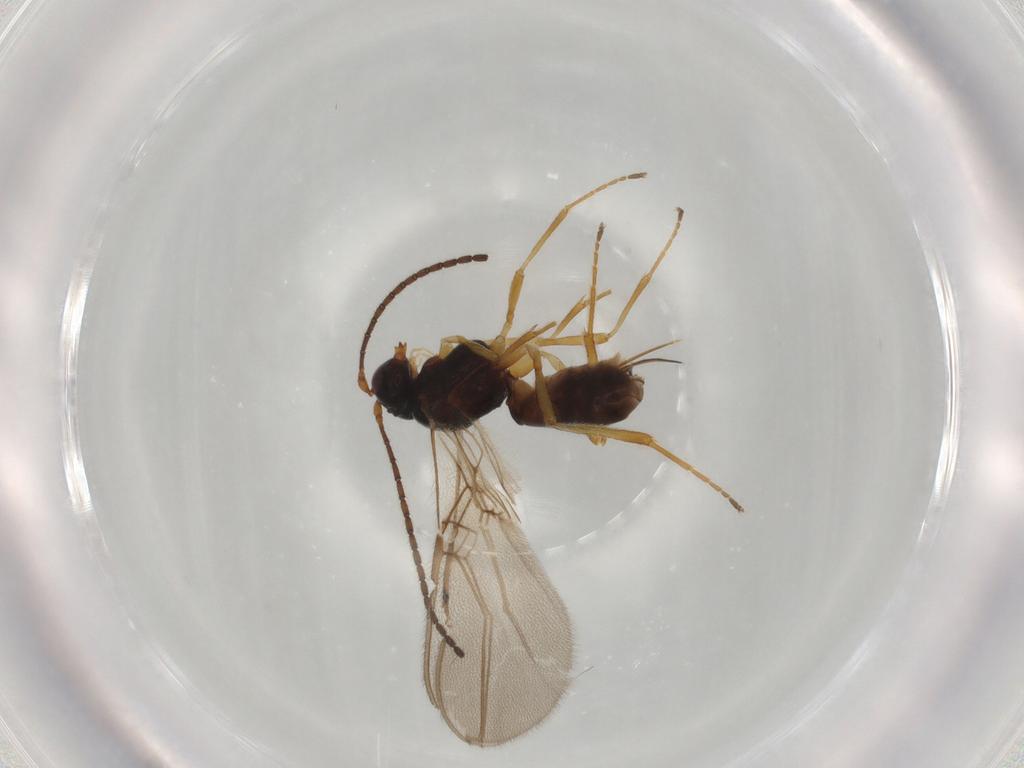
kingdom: Animalia
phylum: Arthropoda
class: Insecta
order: Hymenoptera
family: Braconidae
